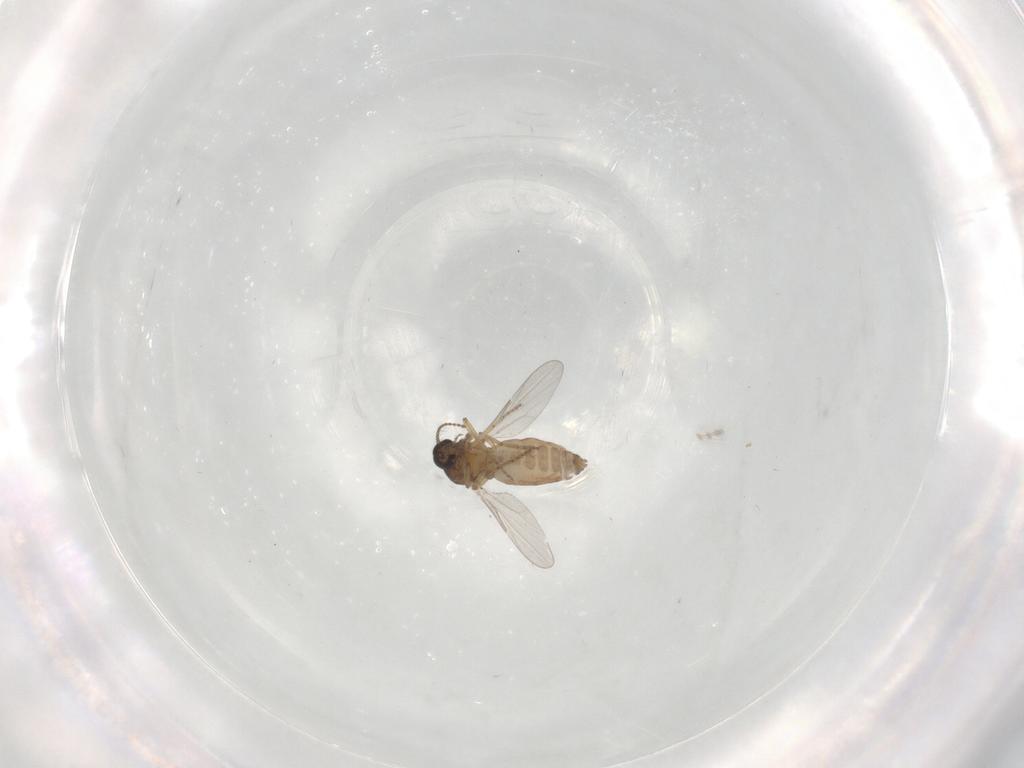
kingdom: Animalia
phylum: Arthropoda
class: Insecta
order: Diptera
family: Ceratopogonidae
